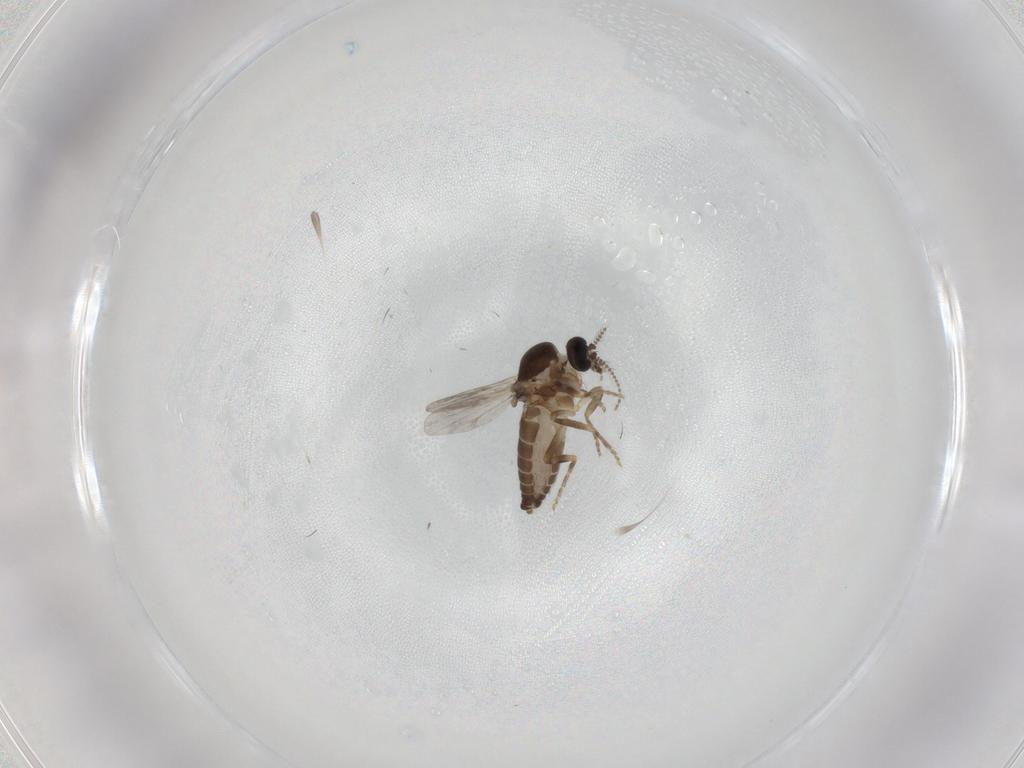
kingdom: Animalia
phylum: Arthropoda
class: Insecta
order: Diptera
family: Ceratopogonidae
